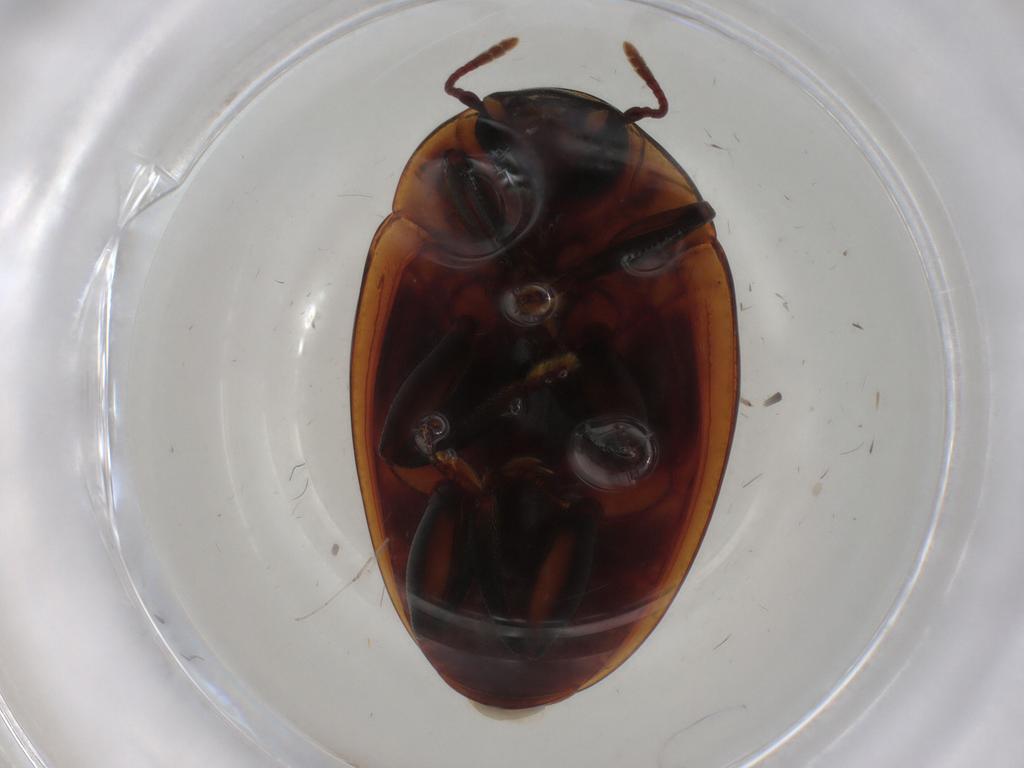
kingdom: Animalia
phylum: Arthropoda
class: Insecta
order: Coleoptera
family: Zopheridae
